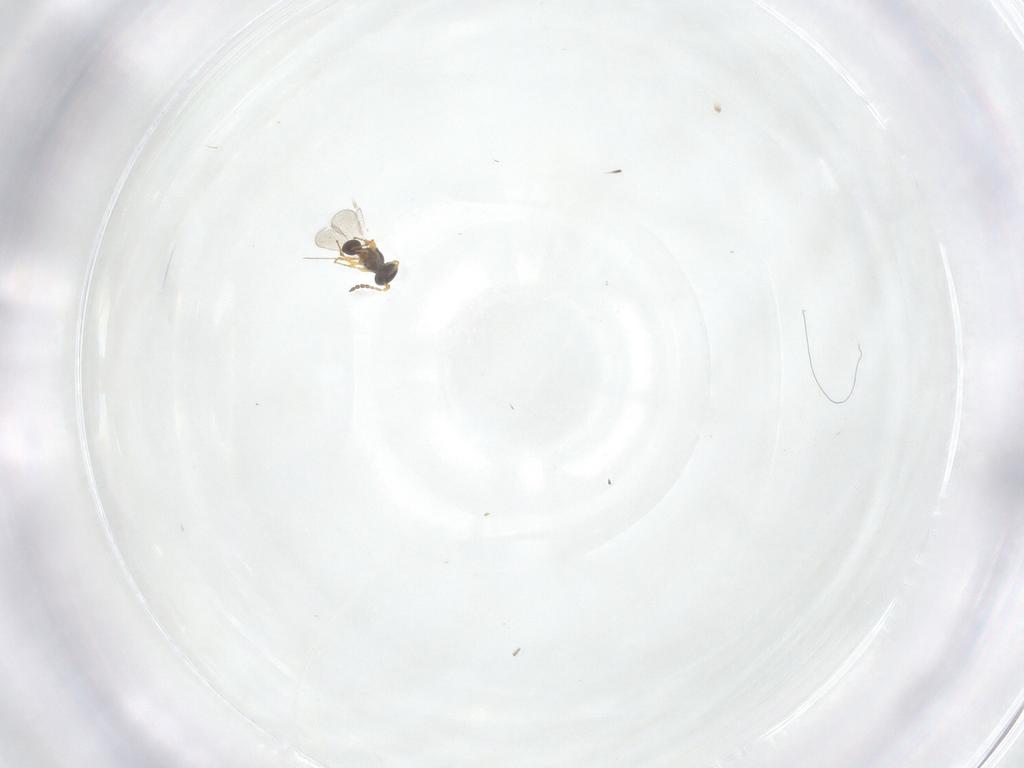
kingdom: Animalia
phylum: Arthropoda
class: Insecta
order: Hymenoptera
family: Platygastridae
